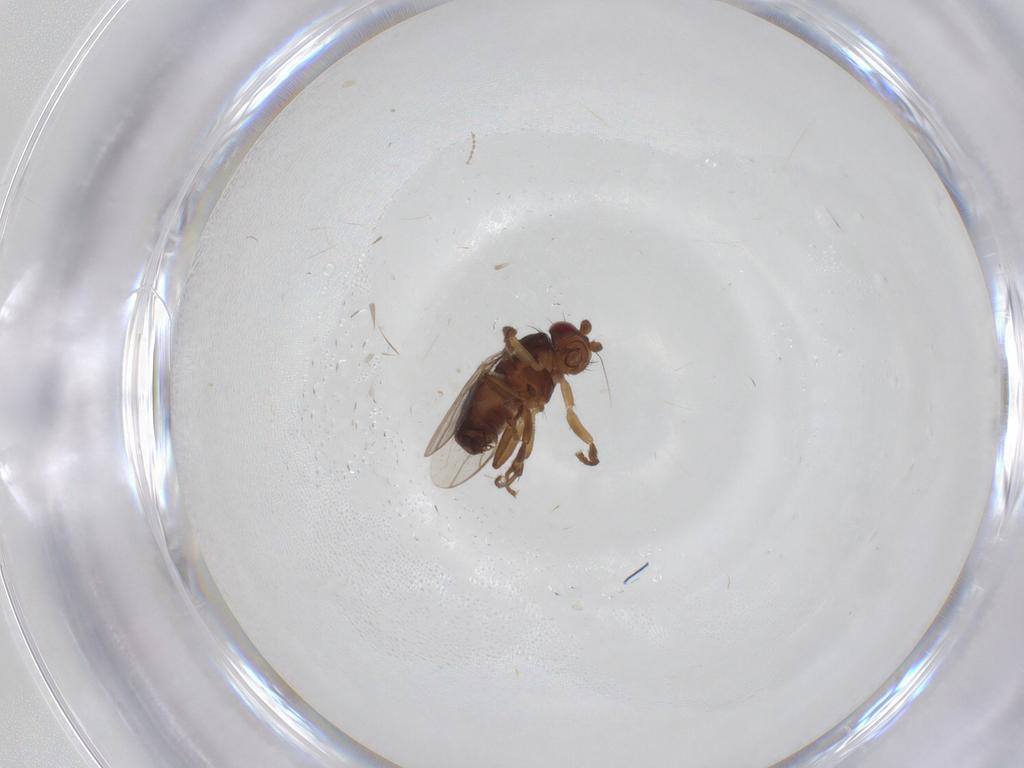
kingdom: Animalia
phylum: Arthropoda
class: Insecta
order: Diptera
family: Cecidomyiidae
